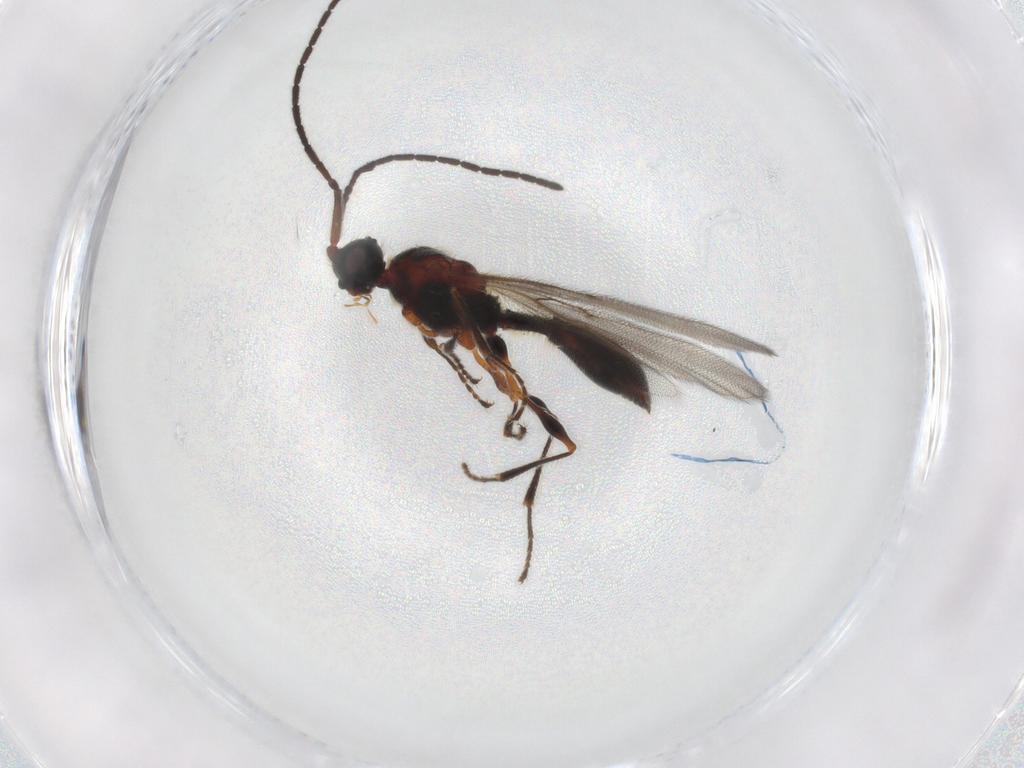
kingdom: Animalia
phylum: Arthropoda
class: Insecta
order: Hymenoptera
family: Diapriidae
